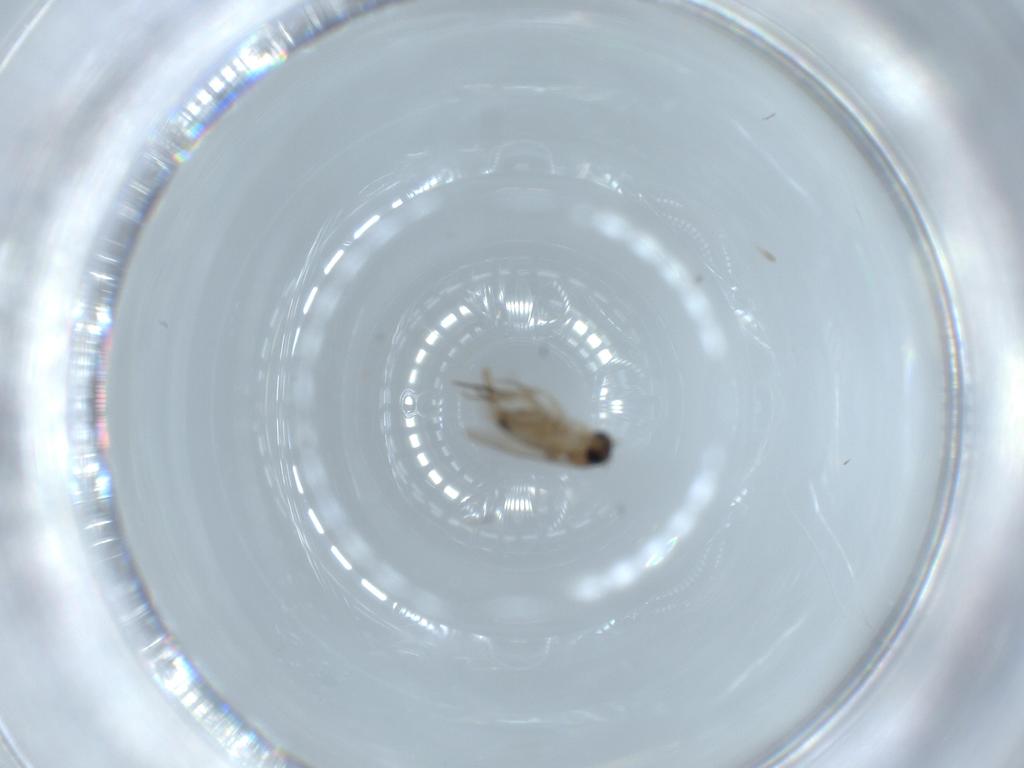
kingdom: Animalia
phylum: Arthropoda
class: Insecta
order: Diptera
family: Phoridae
